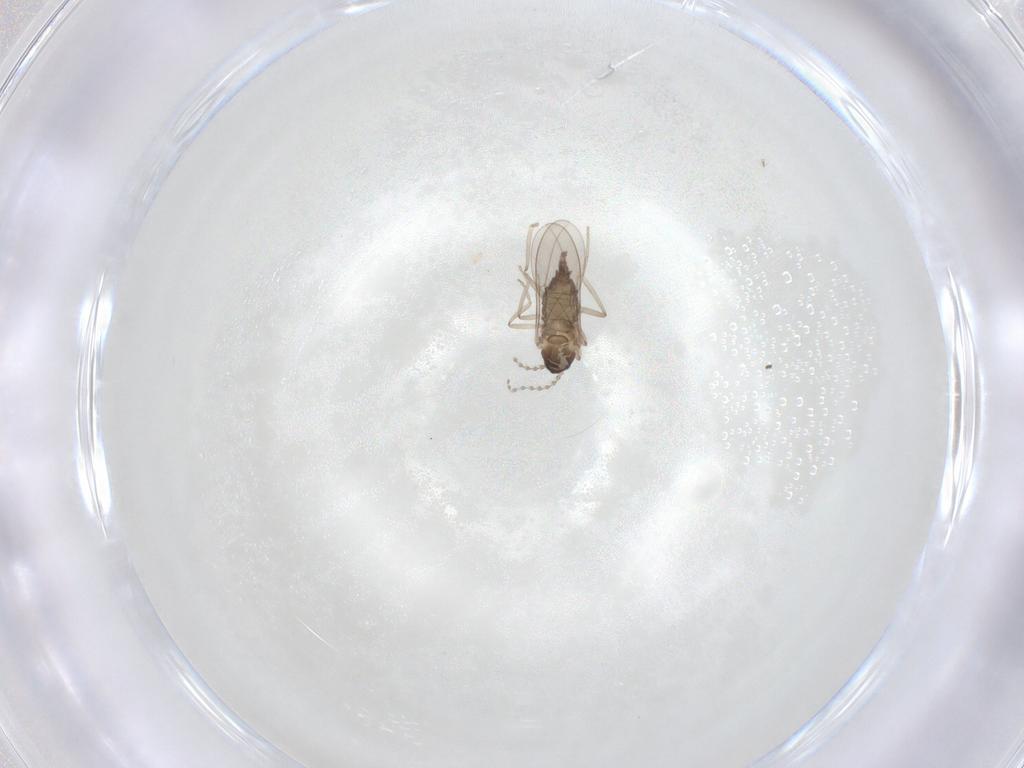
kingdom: Animalia
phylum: Arthropoda
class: Insecta
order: Diptera
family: Cecidomyiidae
